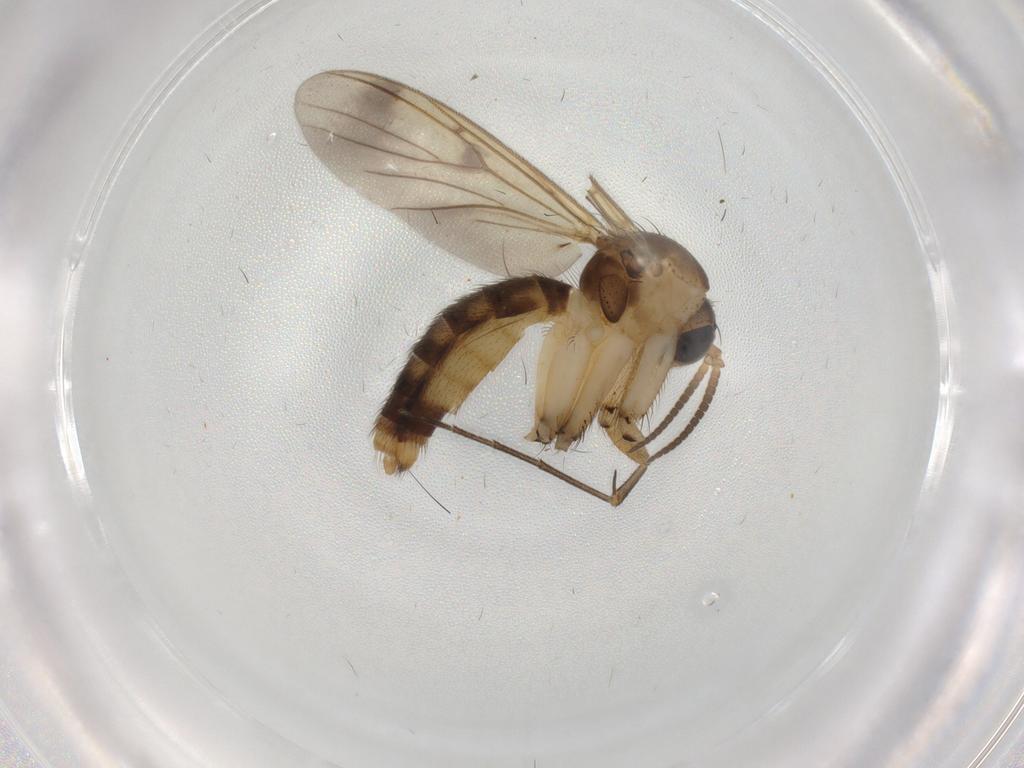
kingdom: Animalia
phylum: Arthropoda
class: Insecta
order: Diptera
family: Mycetophilidae
